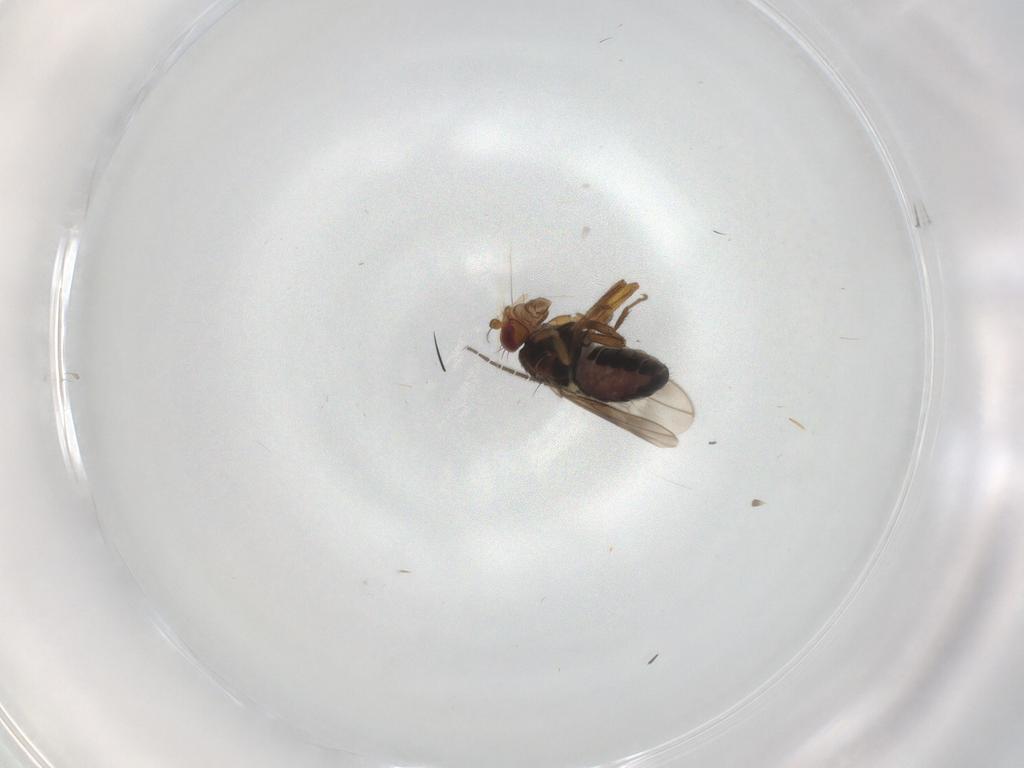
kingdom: Animalia
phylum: Arthropoda
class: Insecta
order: Diptera
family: Sphaeroceridae
